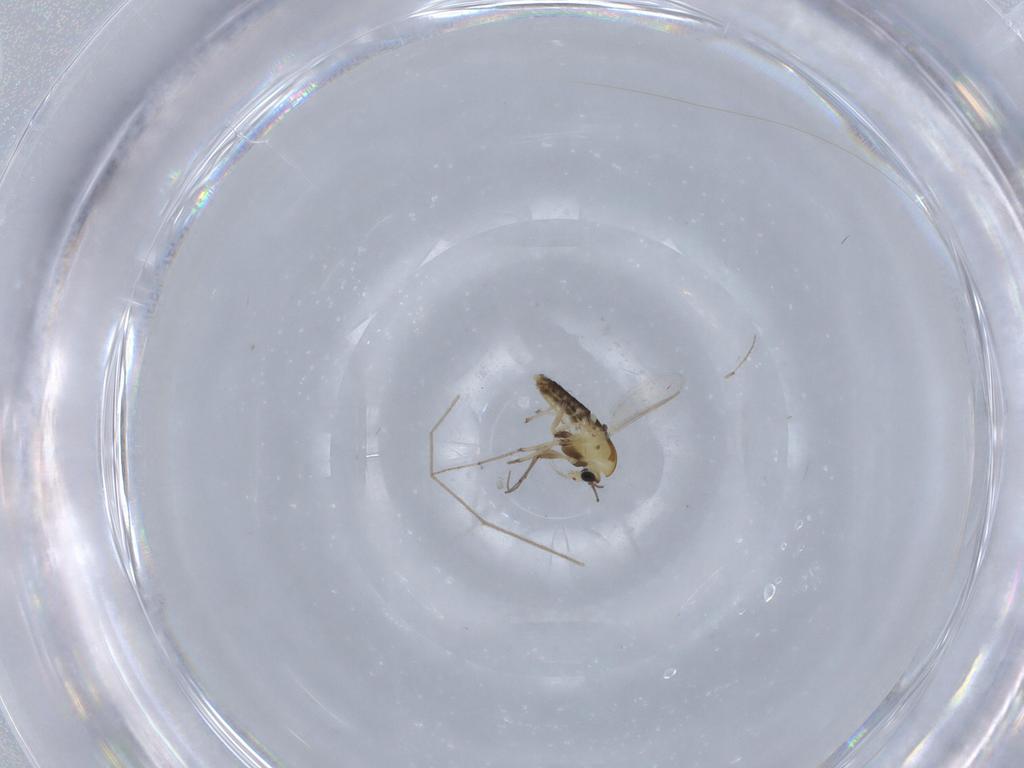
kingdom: Animalia
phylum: Arthropoda
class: Insecta
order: Diptera
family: Chironomidae
